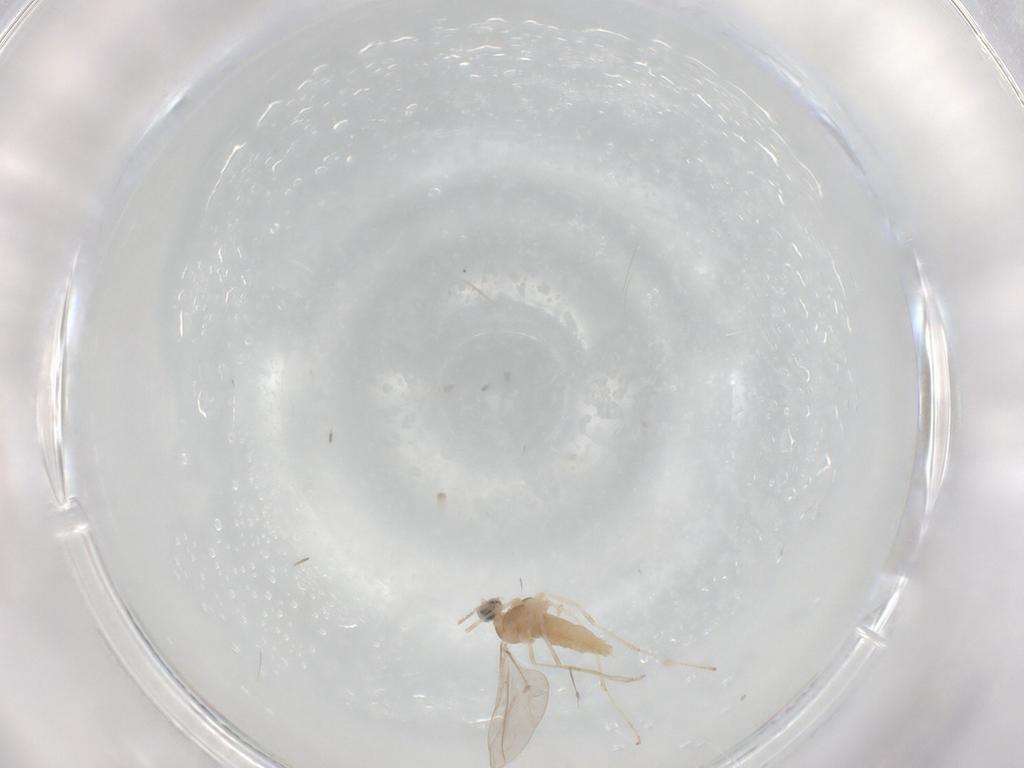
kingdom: Animalia
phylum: Arthropoda
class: Insecta
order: Diptera
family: Cecidomyiidae
